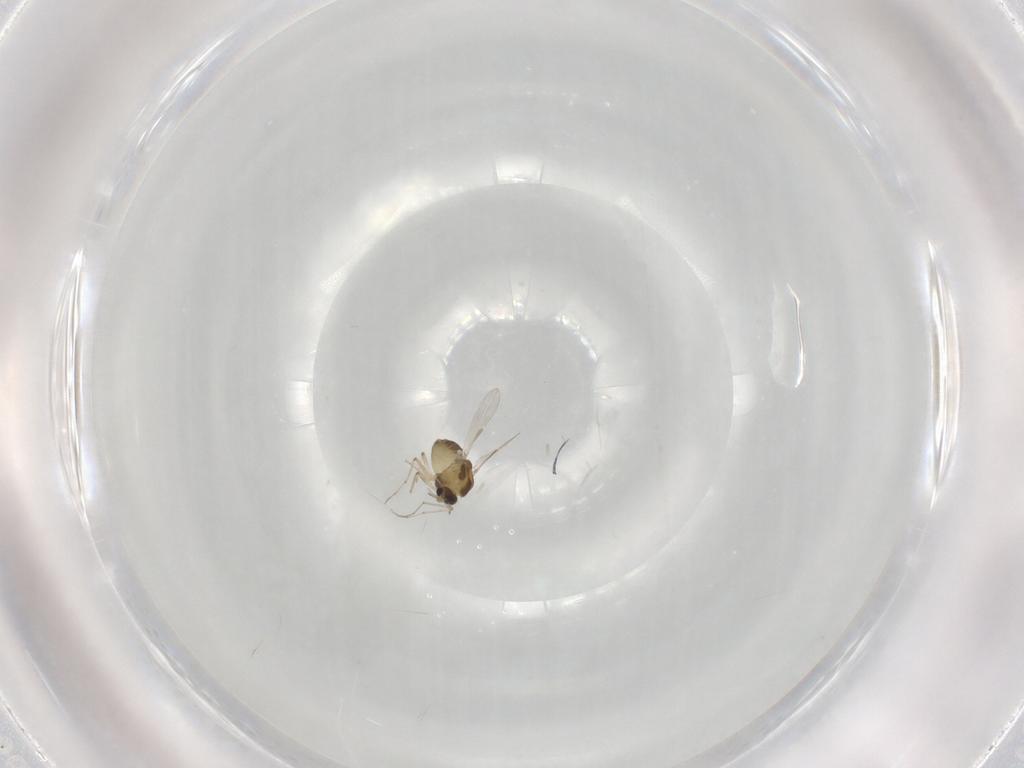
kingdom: Animalia
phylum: Arthropoda
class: Insecta
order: Diptera
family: Chironomidae
